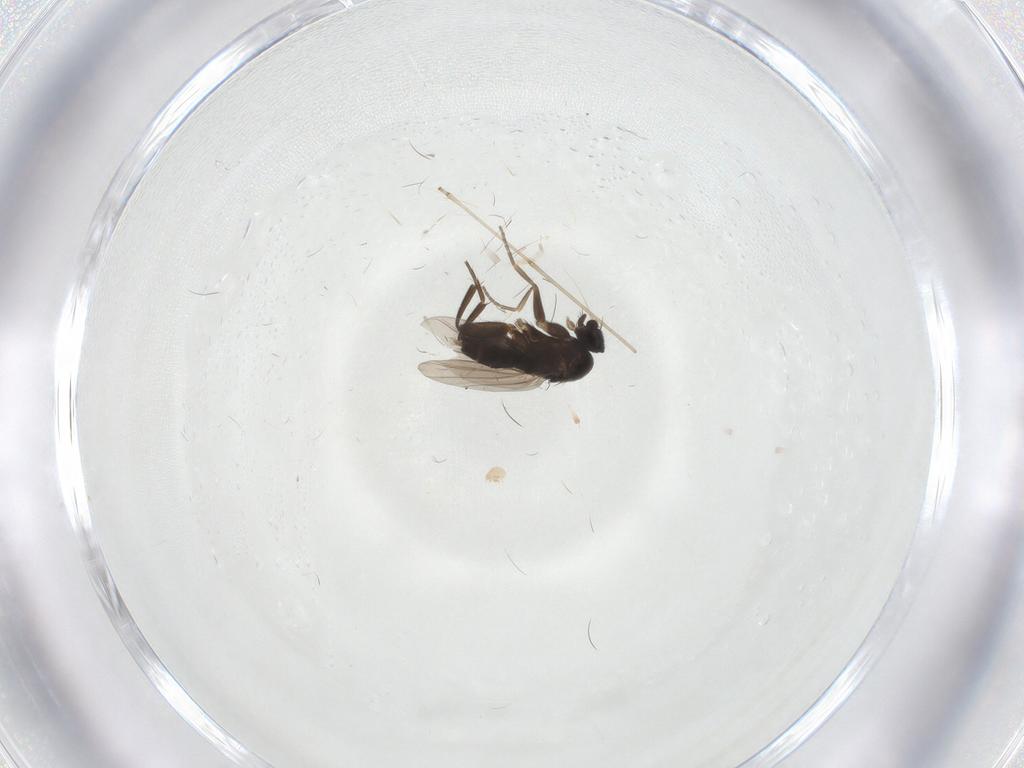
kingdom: Animalia
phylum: Arthropoda
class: Insecta
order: Diptera
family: Phoridae
